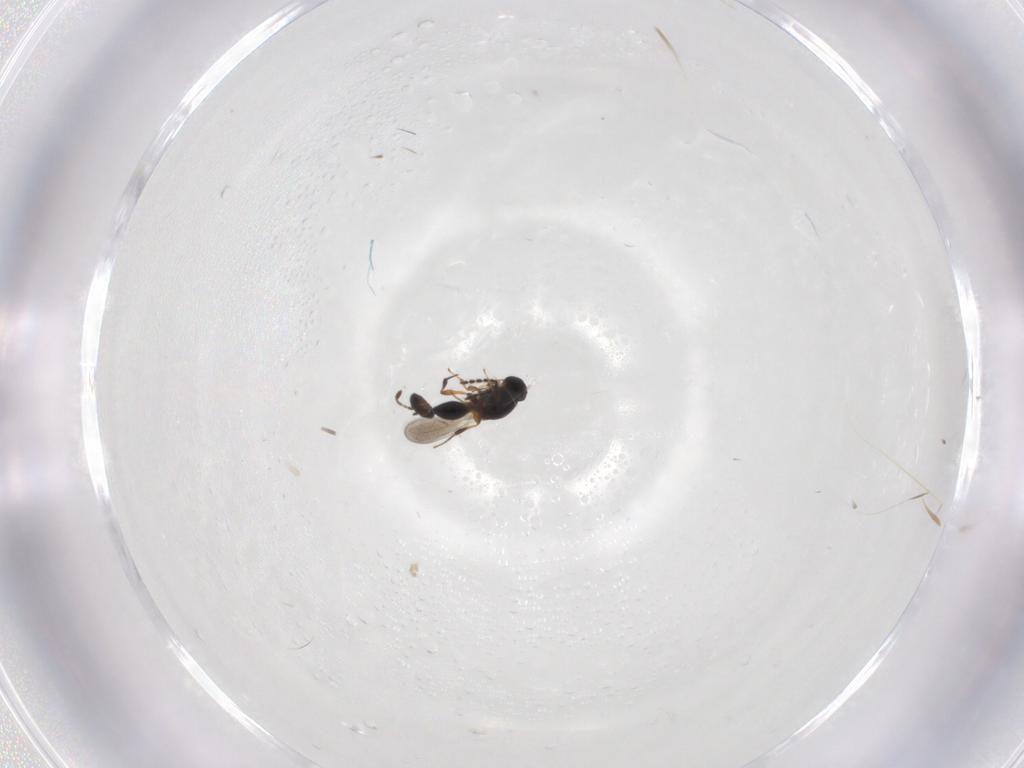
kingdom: Animalia
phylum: Arthropoda
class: Insecta
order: Hymenoptera
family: Scelionidae
